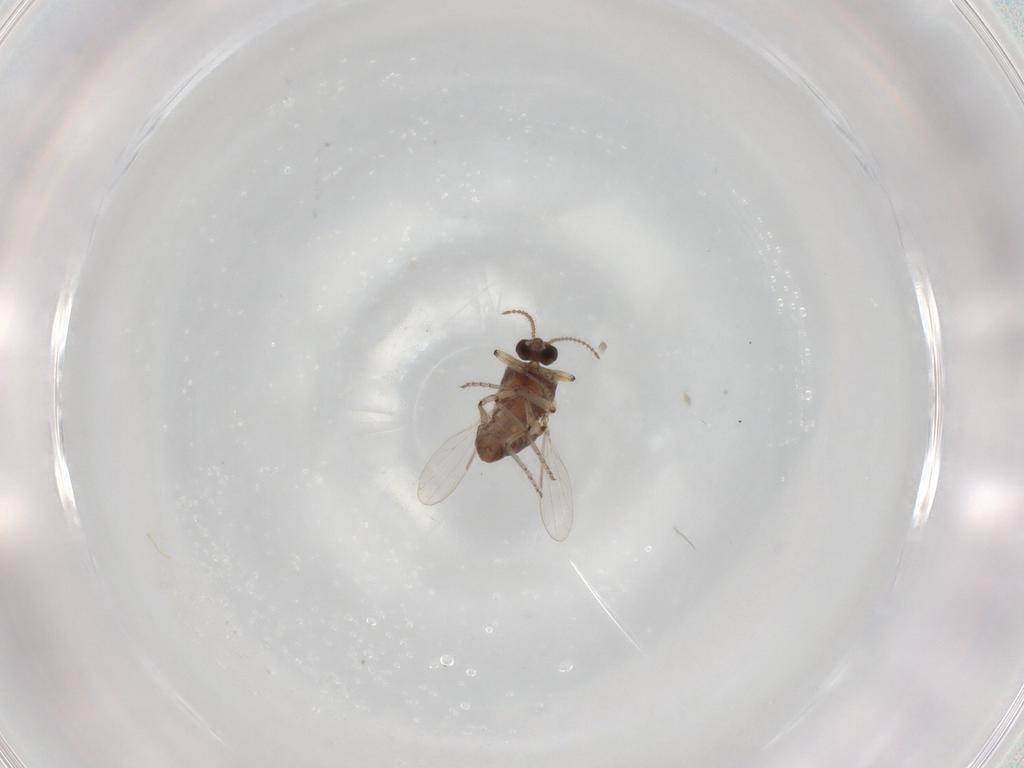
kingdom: Animalia
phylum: Arthropoda
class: Insecta
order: Diptera
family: Ceratopogonidae
